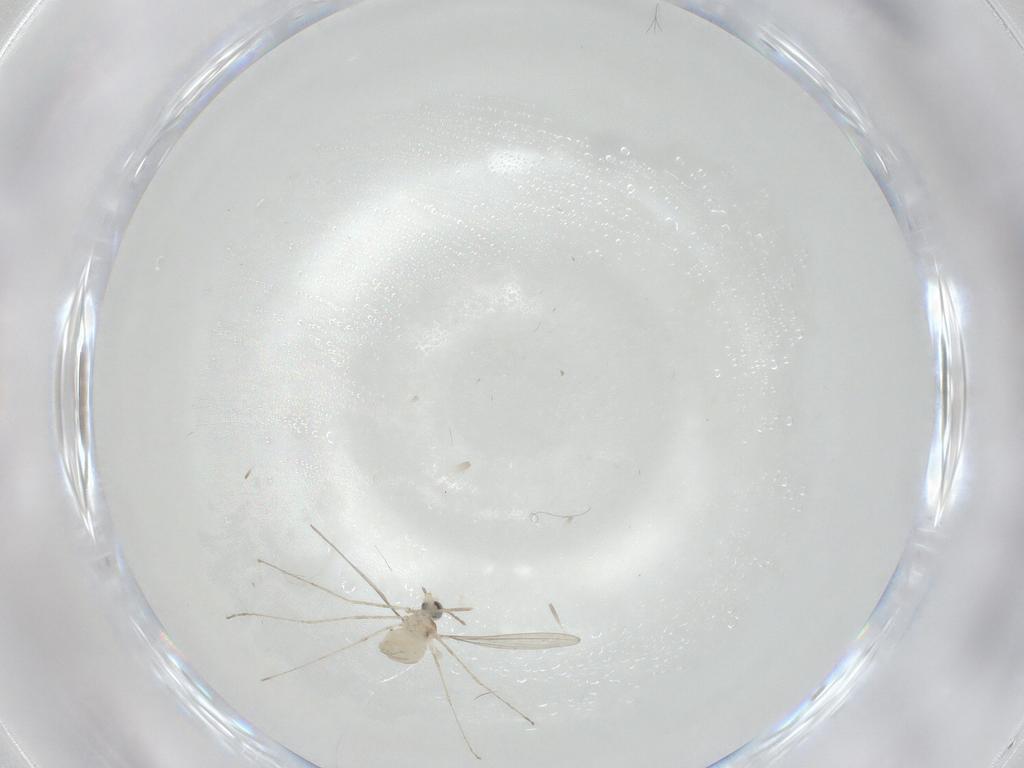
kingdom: Animalia
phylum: Arthropoda
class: Insecta
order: Diptera
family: Cecidomyiidae
